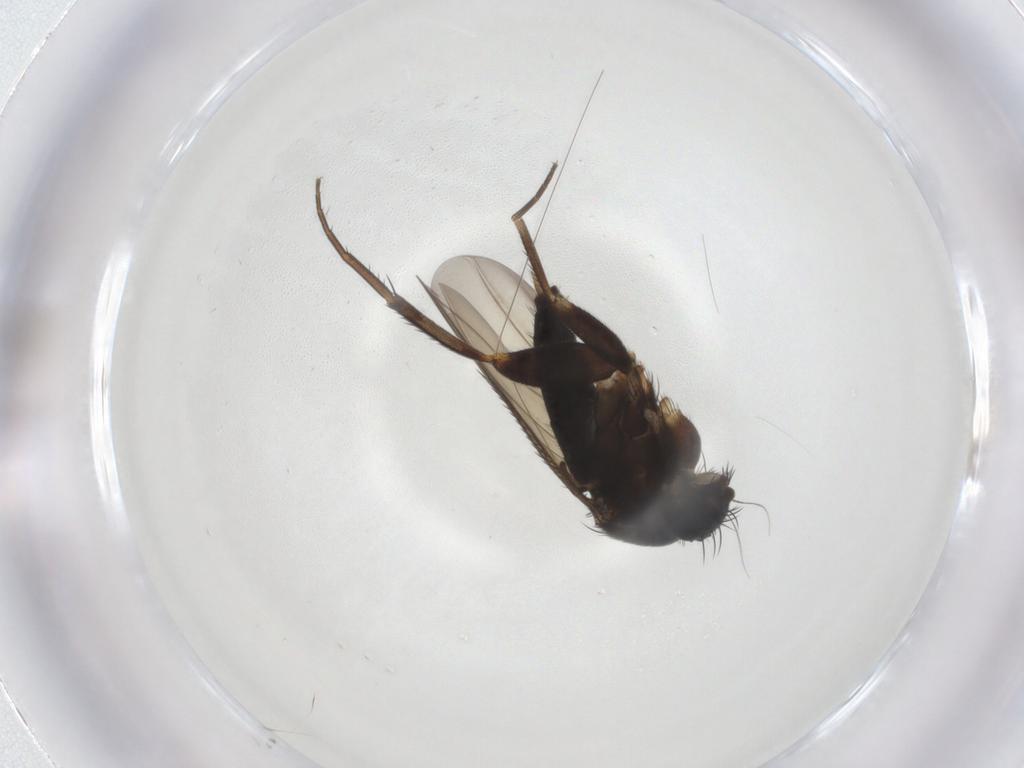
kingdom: Animalia
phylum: Arthropoda
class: Insecta
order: Diptera
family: Phoridae
